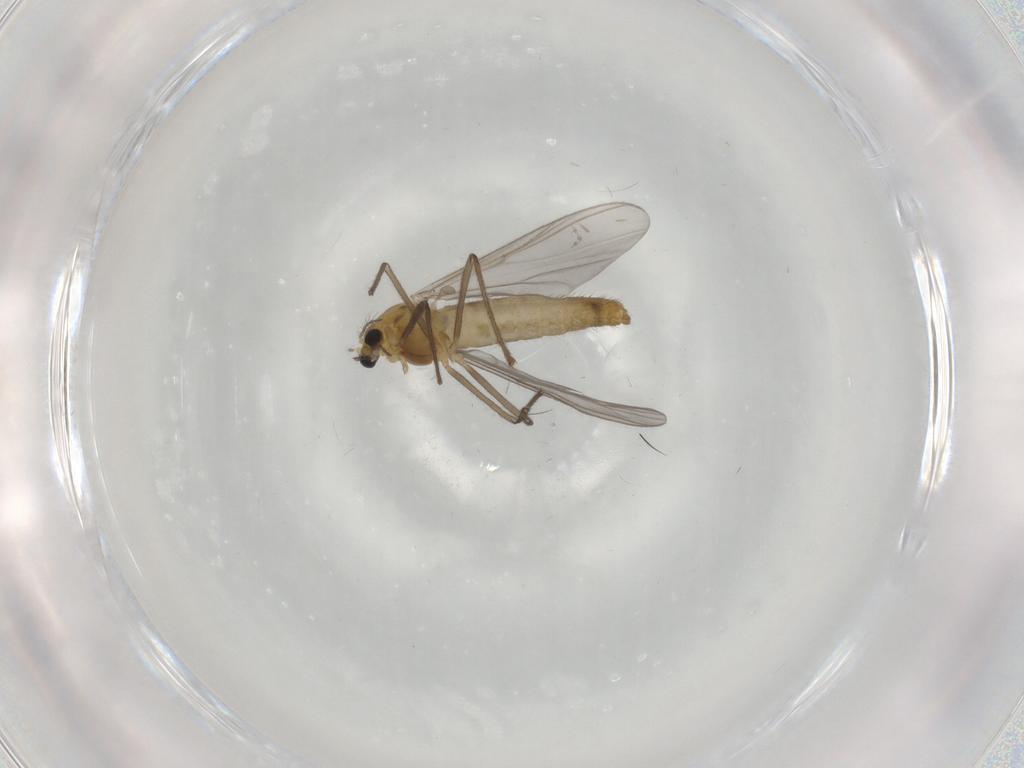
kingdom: Animalia
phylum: Arthropoda
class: Insecta
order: Diptera
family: Chironomidae
